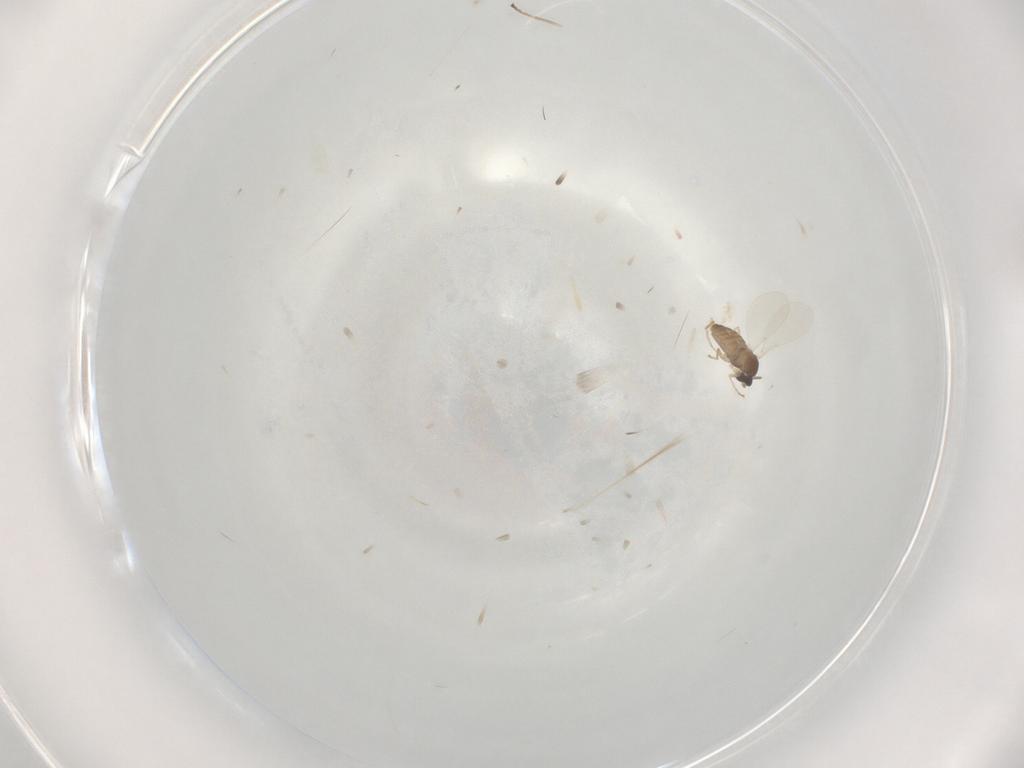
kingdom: Animalia
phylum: Arthropoda
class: Insecta
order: Diptera
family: Cecidomyiidae
